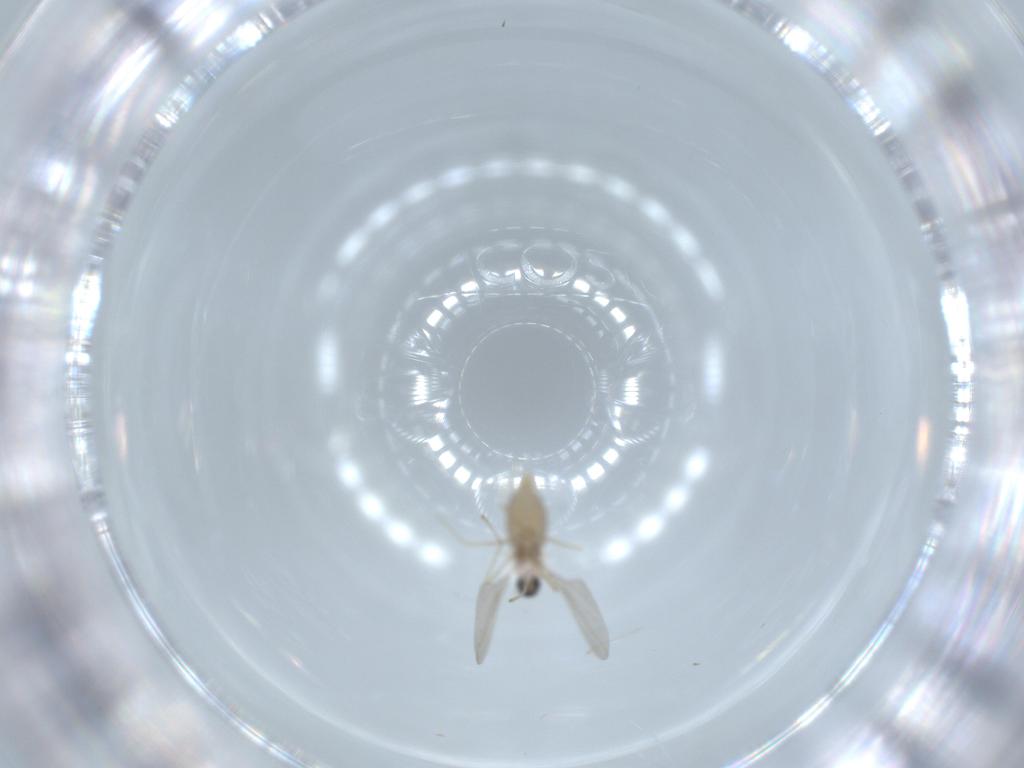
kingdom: Animalia
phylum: Arthropoda
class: Insecta
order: Diptera
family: Cecidomyiidae
